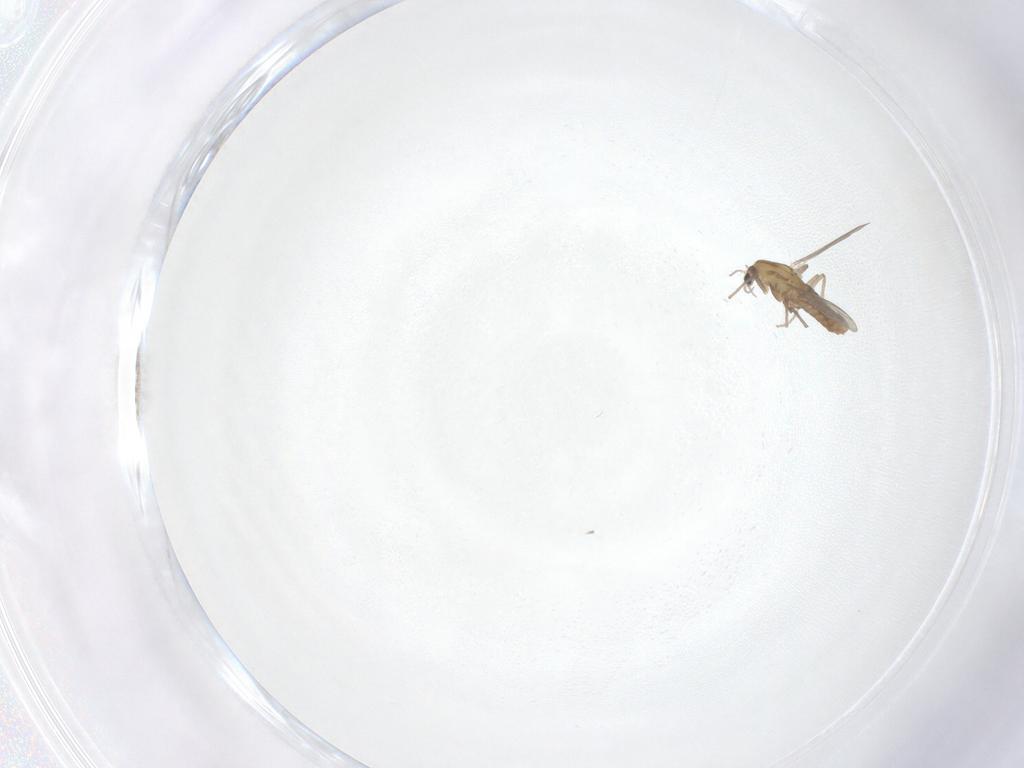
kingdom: Animalia
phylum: Arthropoda
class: Insecta
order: Diptera
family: Chironomidae
